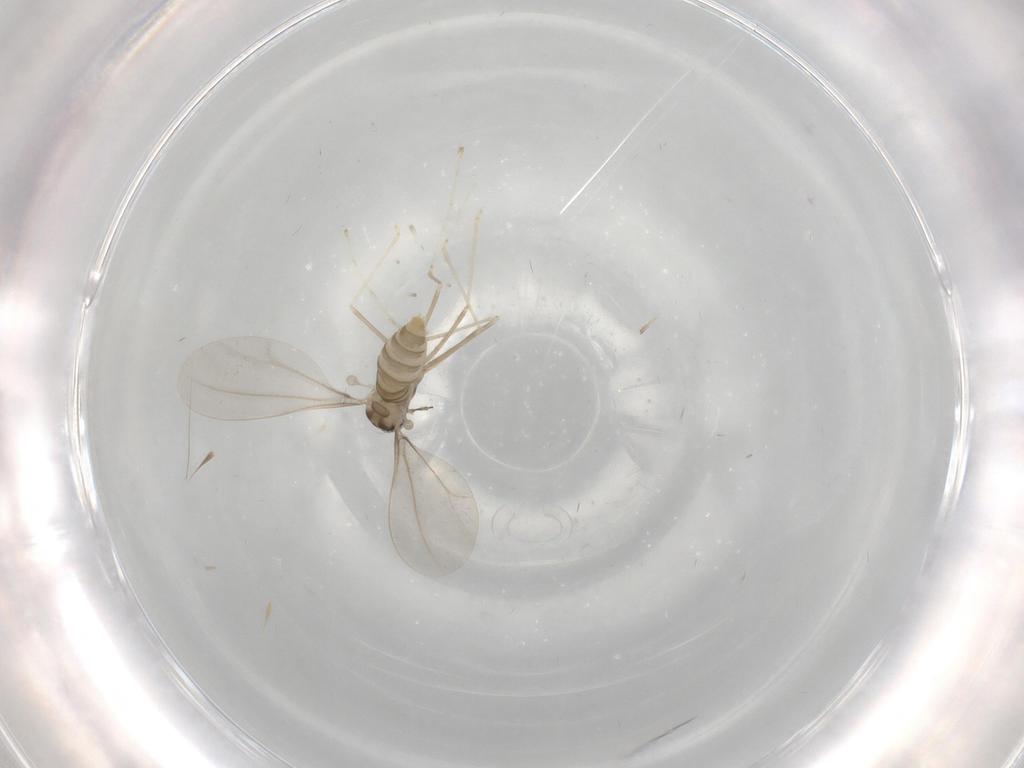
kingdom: Animalia
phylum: Arthropoda
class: Insecta
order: Diptera
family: Cecidomyiidae
